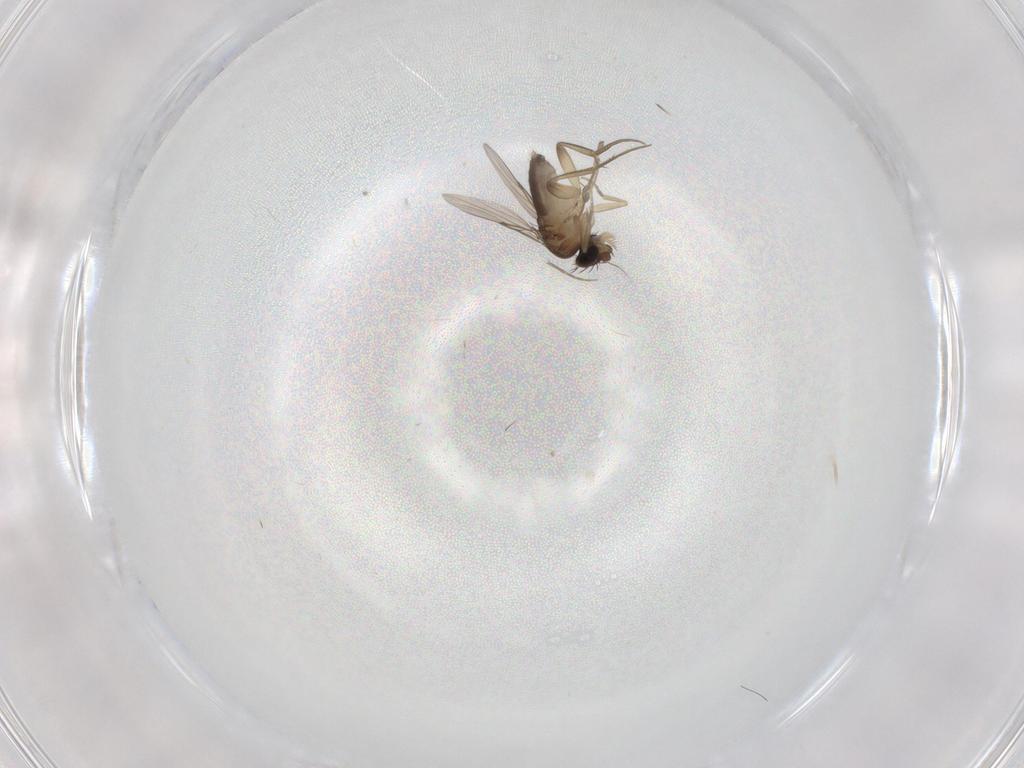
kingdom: Animalia
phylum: Arthropoda
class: Insecta
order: Diptera
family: Phoridae
